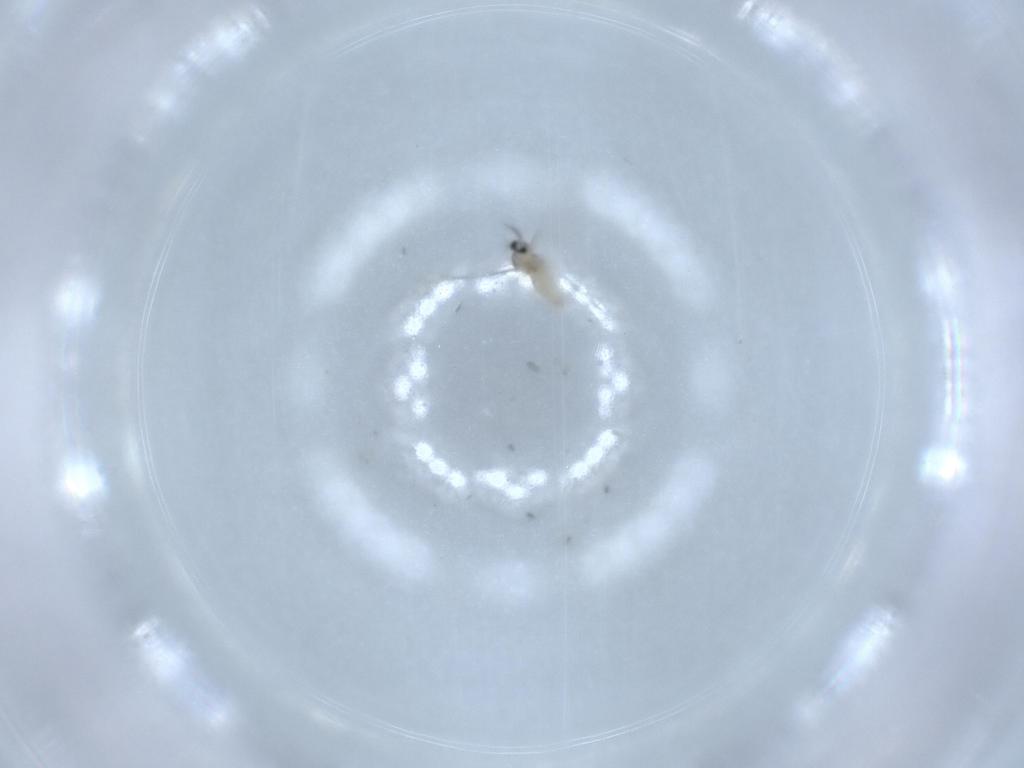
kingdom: Animalia
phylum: Arthropoda
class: Insecta
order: Diptera
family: Cecidomyiidae
